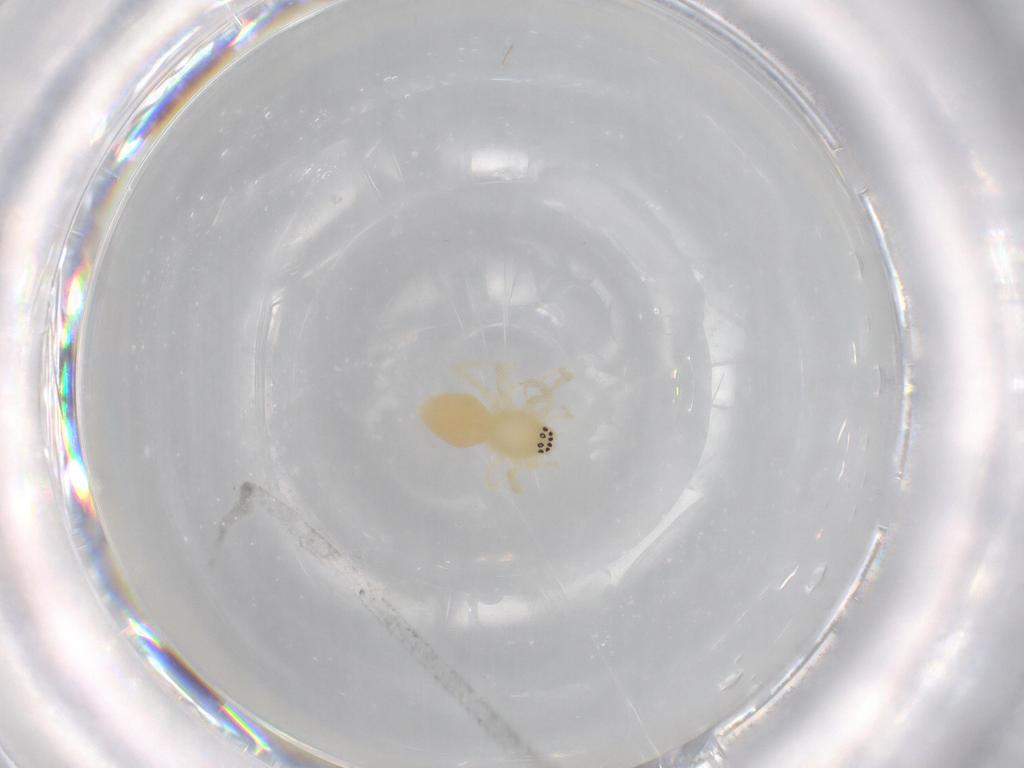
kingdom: Animalia
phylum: Arthropoda
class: Arachnida
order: Araneae
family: Anyphaenidae
